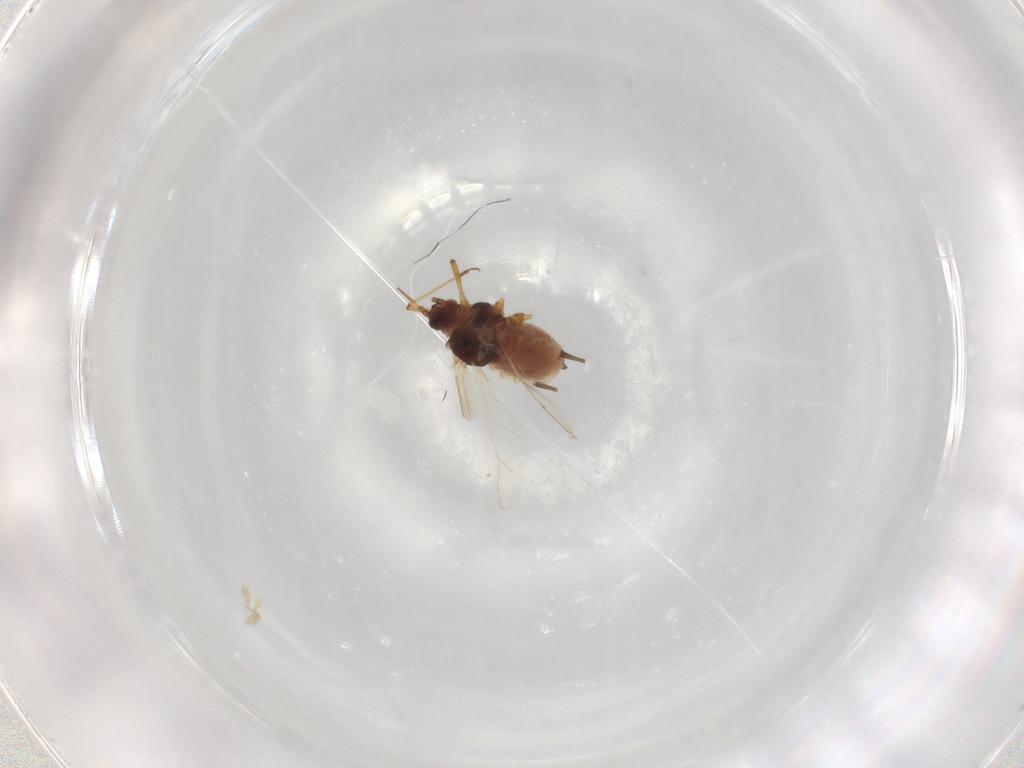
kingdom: Animalia
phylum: Arthropoda
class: Insecta
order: Hemiptera
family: Aphididae
